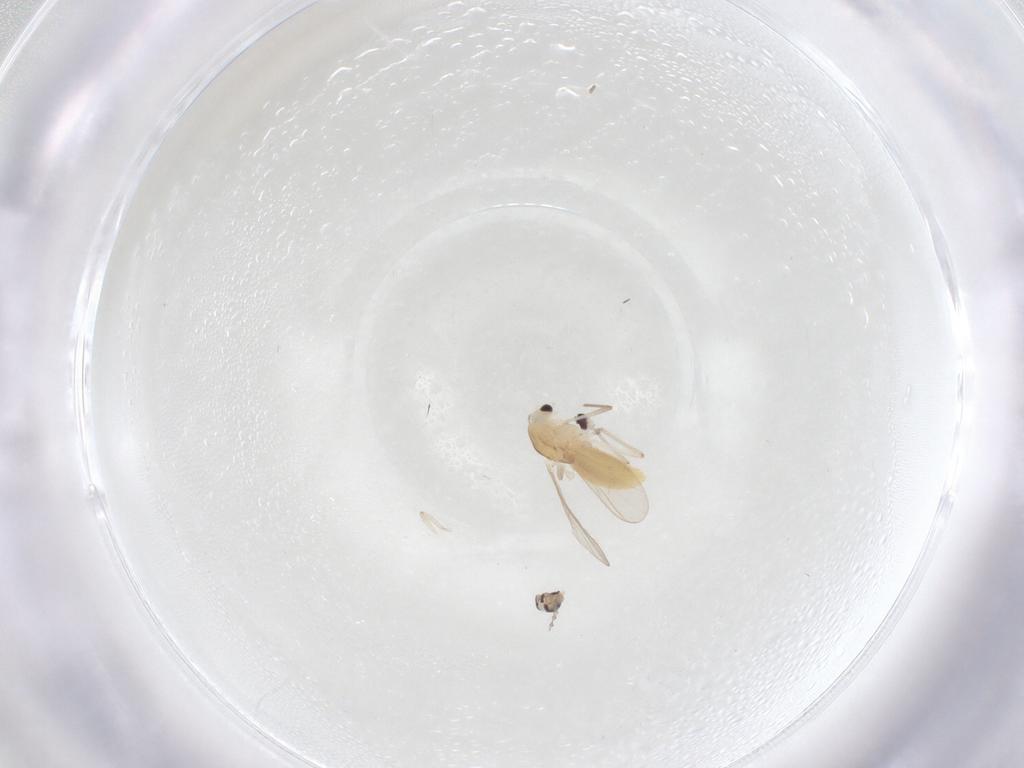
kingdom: Animalia
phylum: Arthropoda
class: Insecta
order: Diptera
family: Cecidomyiidae
